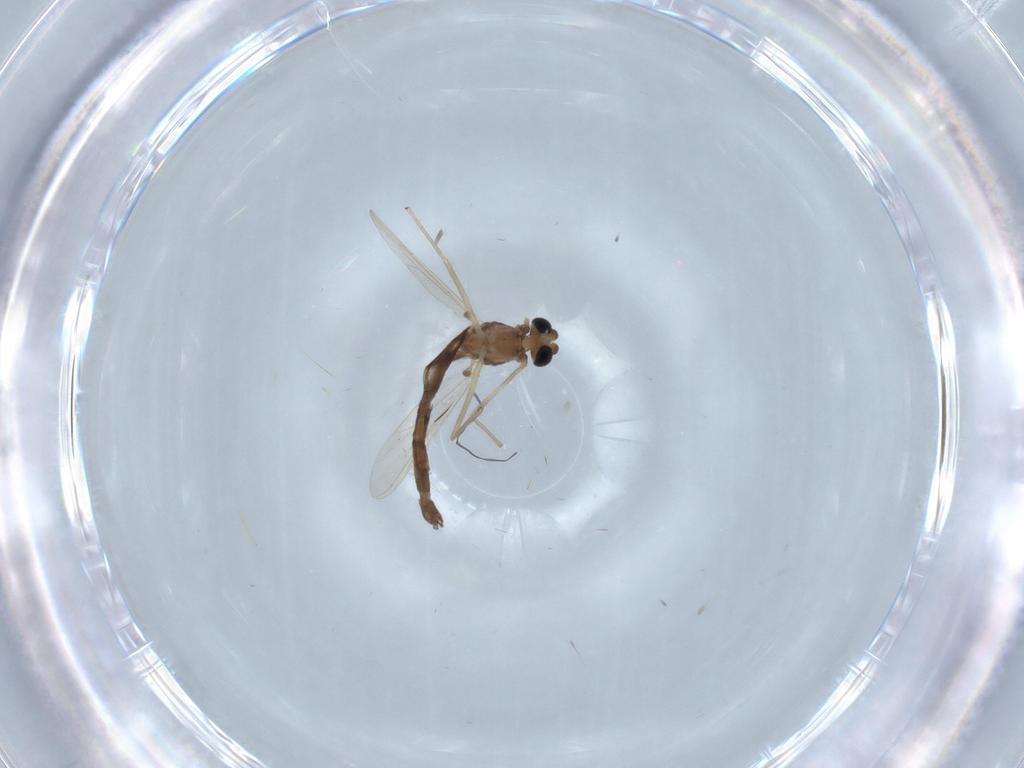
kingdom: Animalia
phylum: Arthropoda
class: Insecta
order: Diptera
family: Chironomidae
